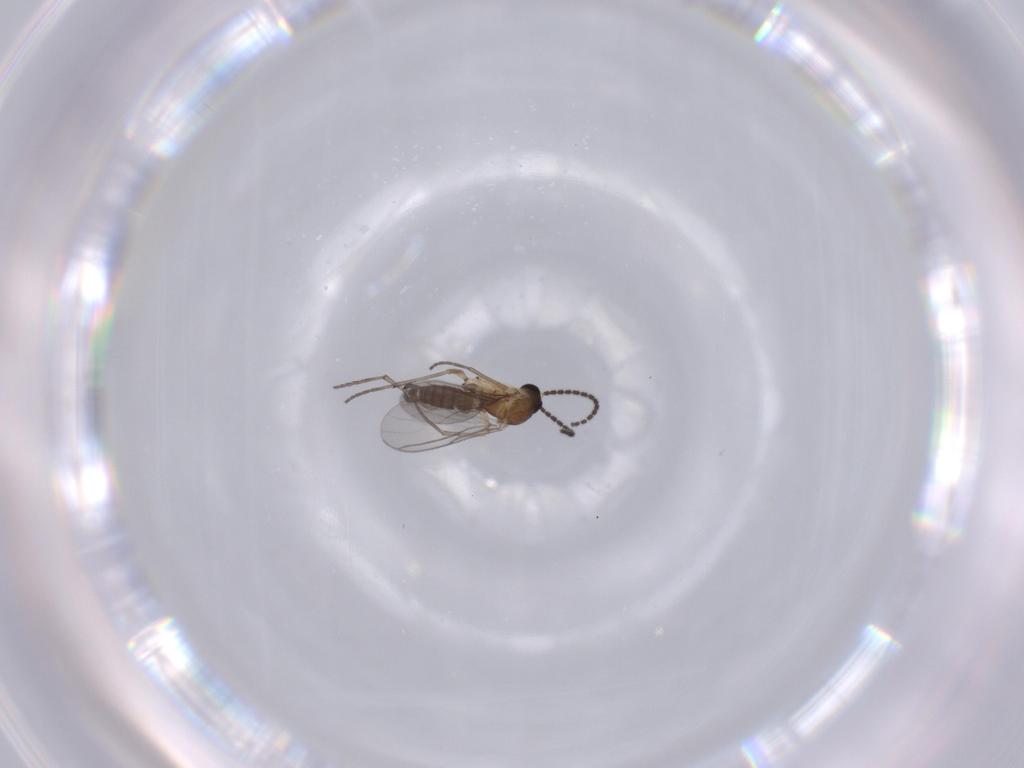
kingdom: Animalia
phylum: Arthropoda
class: Insecta
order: Diptera
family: Sciaridae
